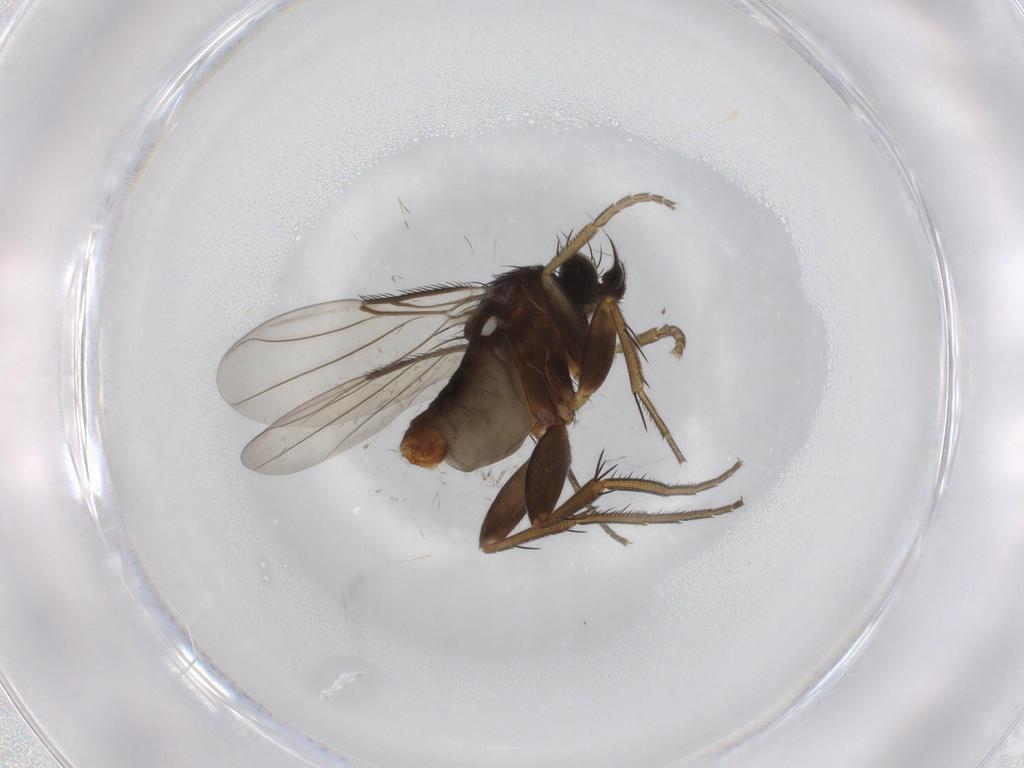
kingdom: Animalia
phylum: Arthropoda
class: Insecta
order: Diptera
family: Phoridae
